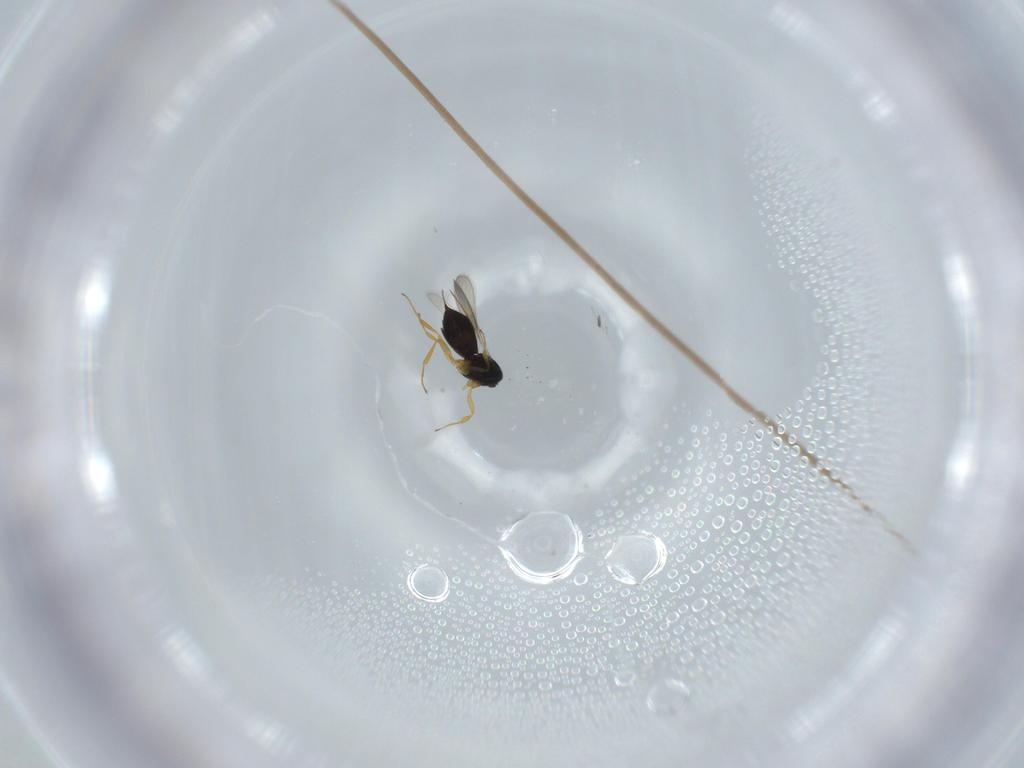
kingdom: Animalia
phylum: Arthropoda
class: Insecta
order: Hymenoptera
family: Scelionidae
